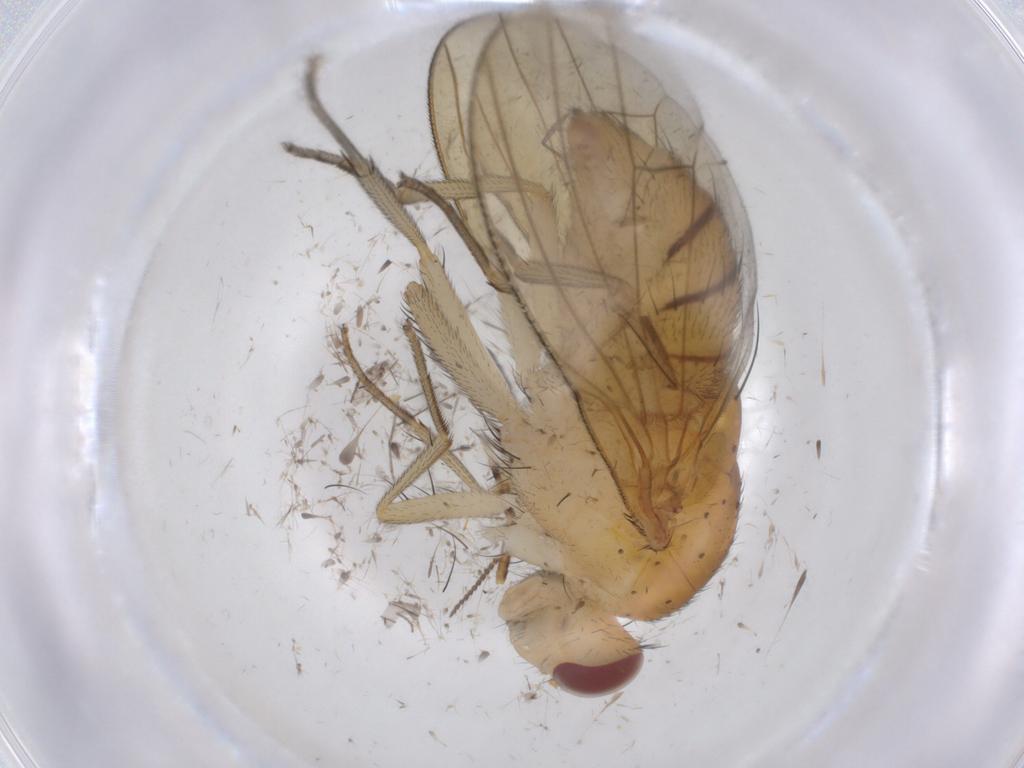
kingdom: Animalia
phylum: Arthropoda
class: Insecta
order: Diptera
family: Limoniidae
